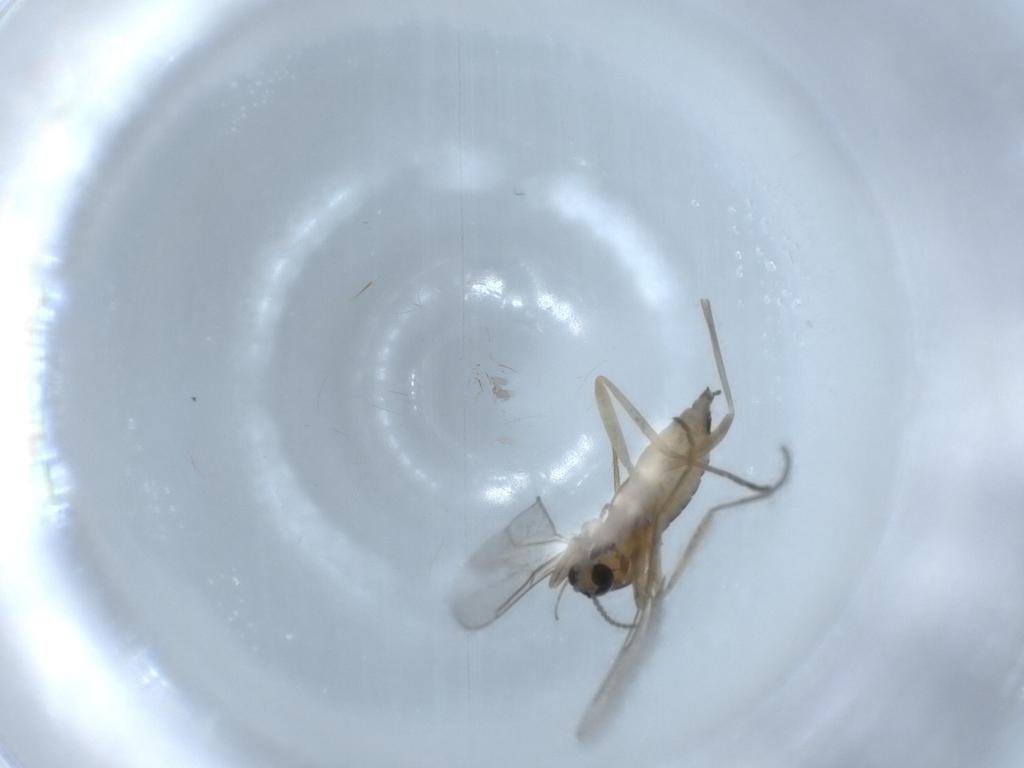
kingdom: Animalia
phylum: Arthropoda
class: Insecta
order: Diptera
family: Cecidomyiidae
